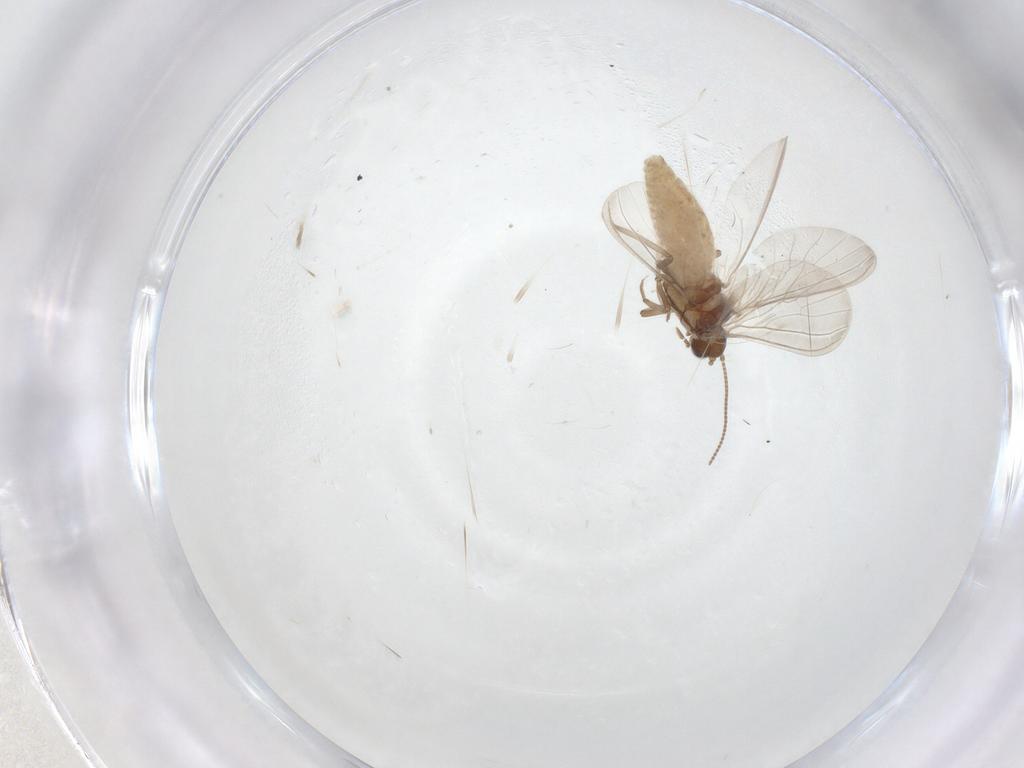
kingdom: Animalia
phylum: Arthropoda
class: Insecta
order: Neuroptera
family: Coniopterygidae
